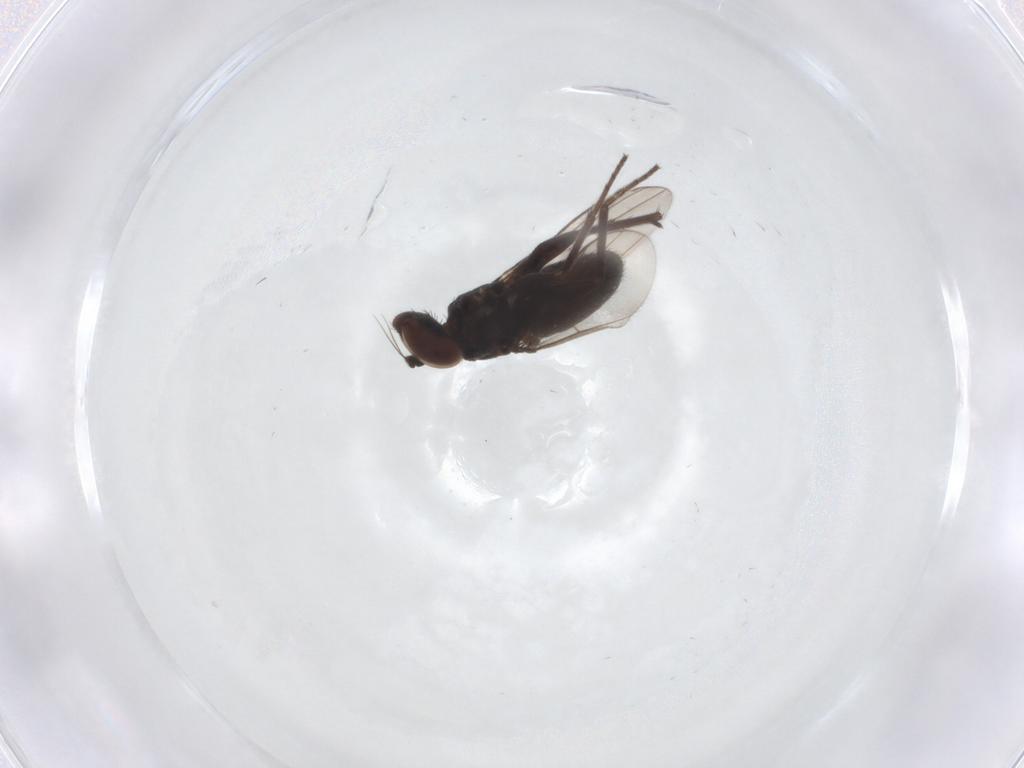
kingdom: Animalia
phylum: Arthropoda
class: Insecta
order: Diptera
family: Dolichopodidae
